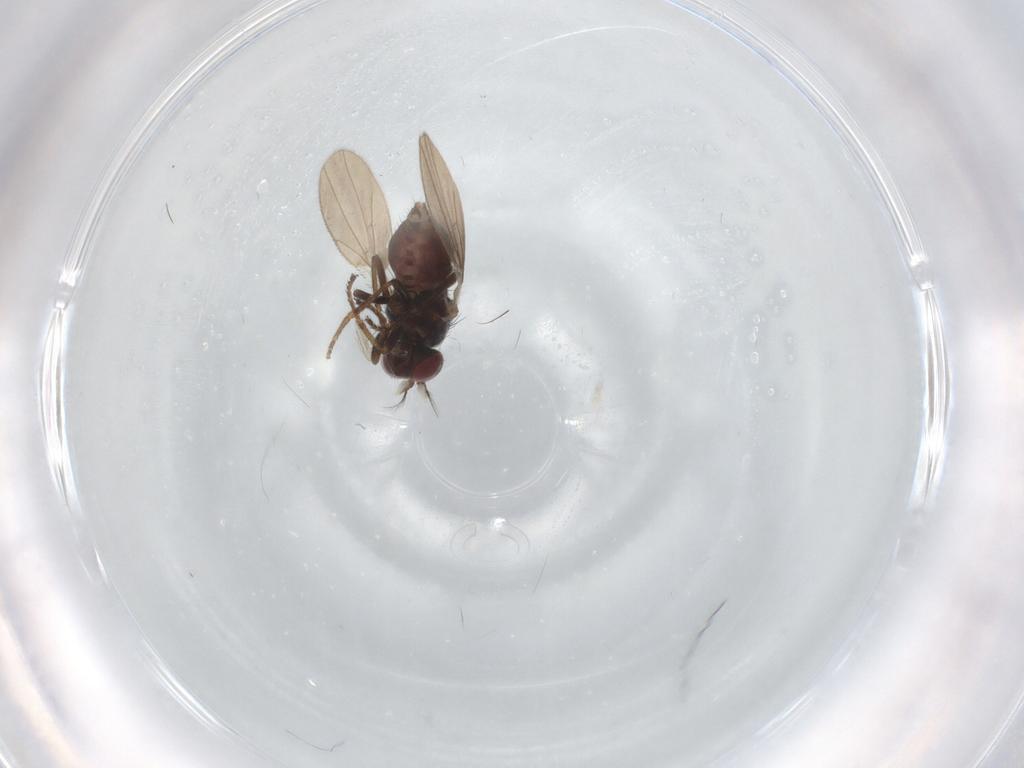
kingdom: Animalia
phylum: Arthropoda
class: Insecta
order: Diptera
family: Ephydridae
